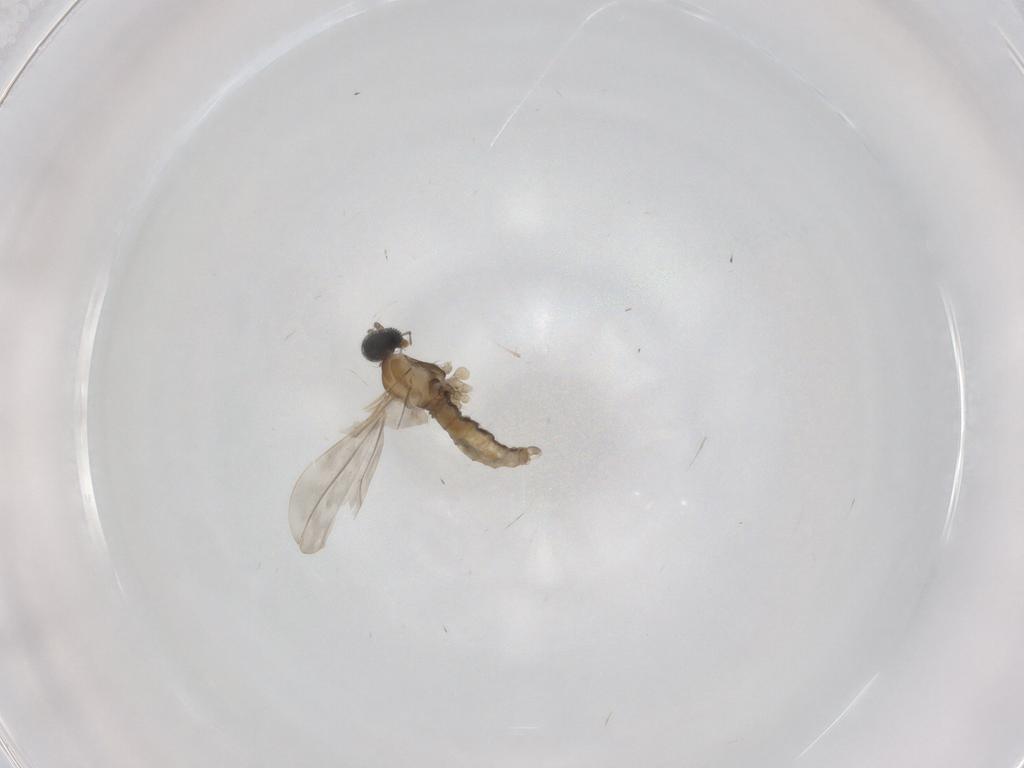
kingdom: Animalia
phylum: Arthropoda
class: Insecta
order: Diptera
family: Cecidomyiidae
